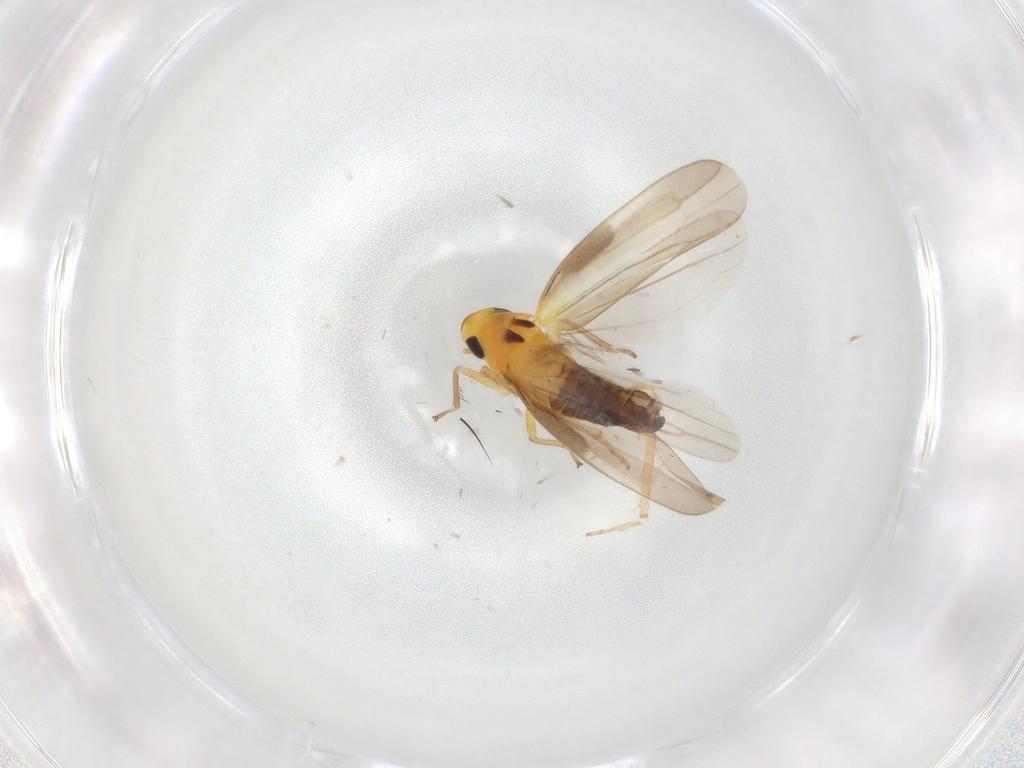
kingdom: Animalia
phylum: Arthropoda
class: Insecta
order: Hemiptera
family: Cicadellidae
